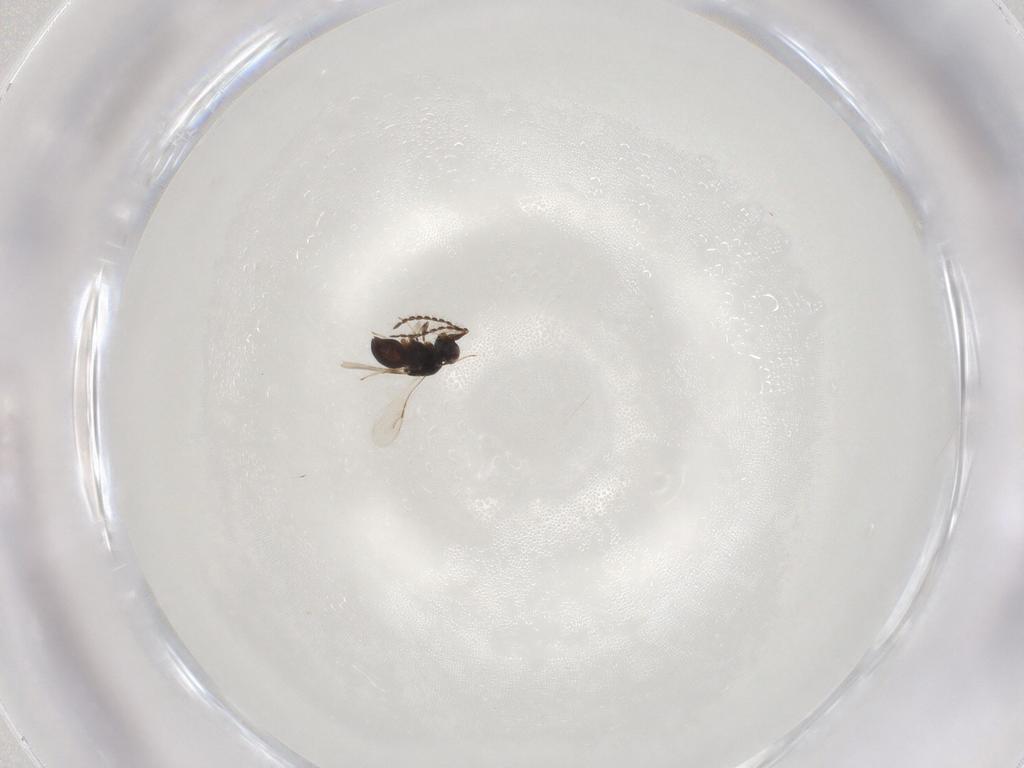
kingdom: Animalia
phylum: Arthropoda
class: Insecta
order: Hymenoptera
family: Ceraphronidae
